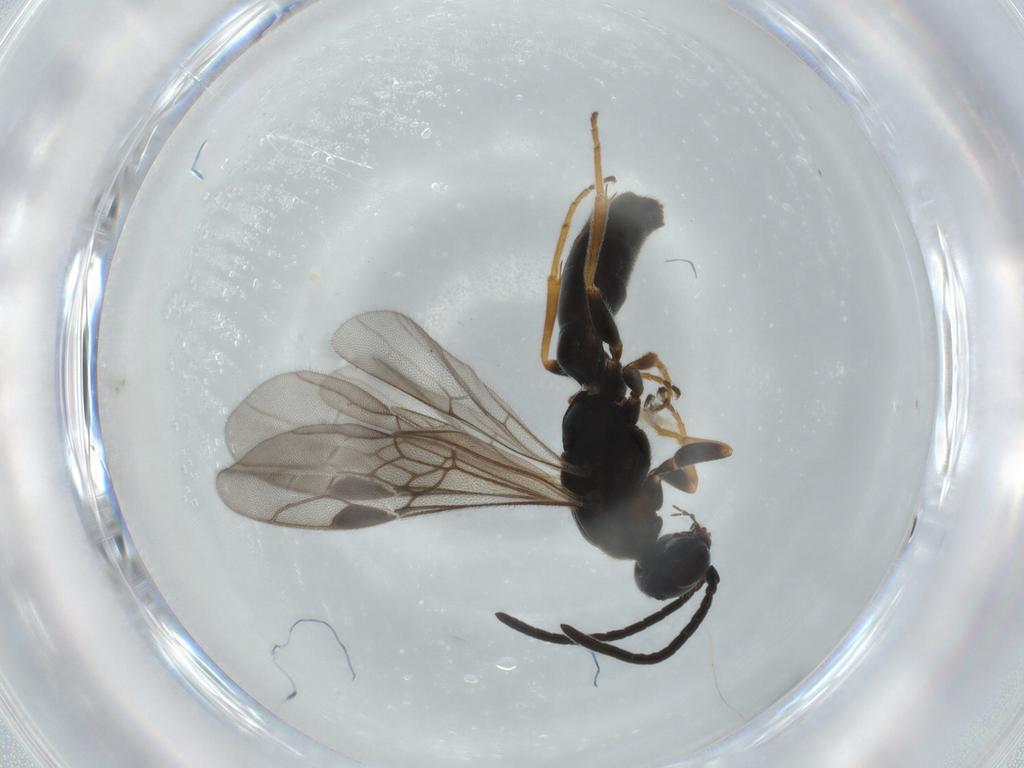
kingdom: Animalia
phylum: Arthropoda
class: Insecta
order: Hymenoptera
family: Sierolomorphidae
